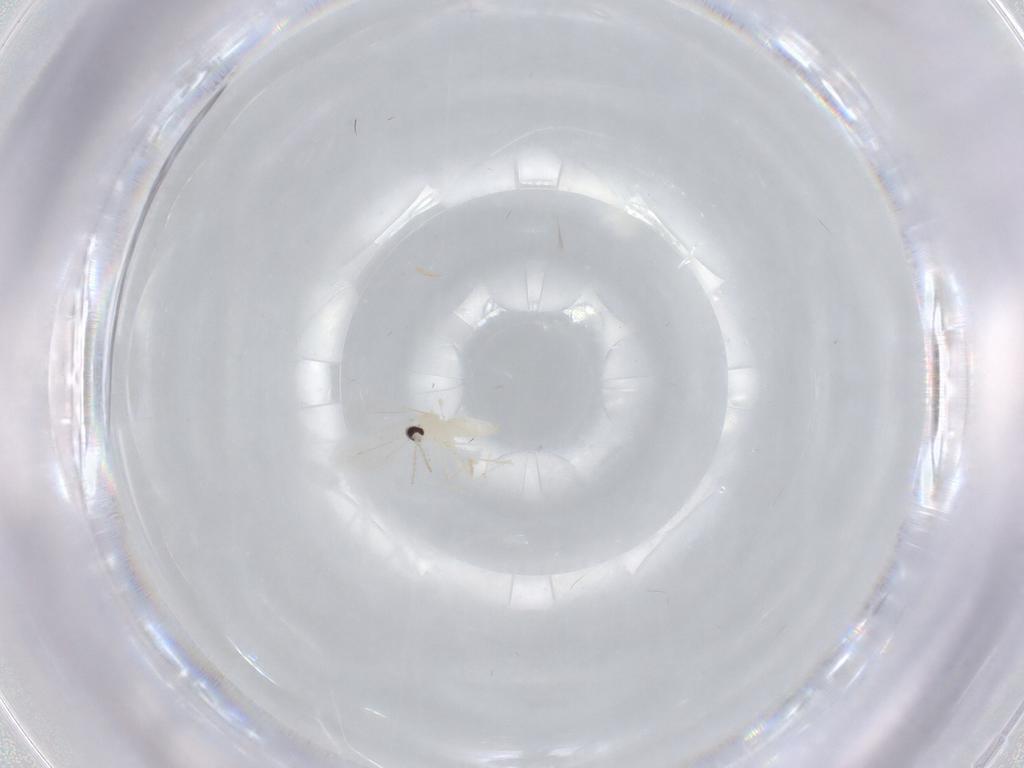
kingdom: Animalia
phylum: Arthropoda
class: Insecta
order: Diptera
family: Cecidomyiidae
